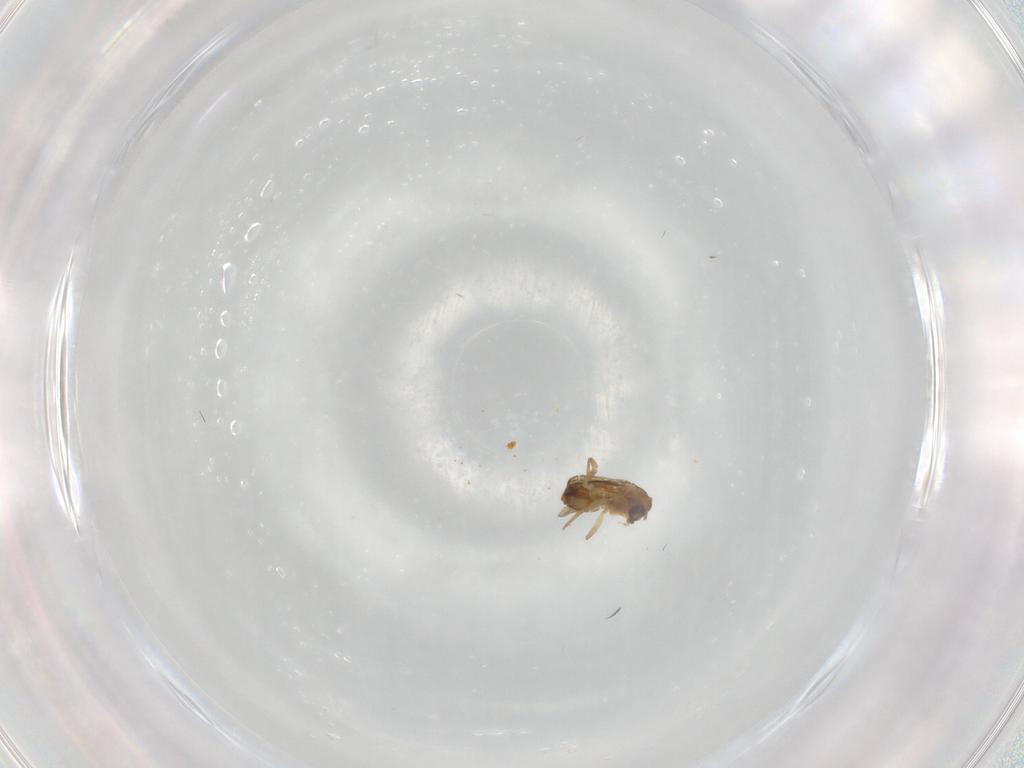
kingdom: Animalia
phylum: Arthropoda
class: Insecta
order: Diptera
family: Chironomidae
